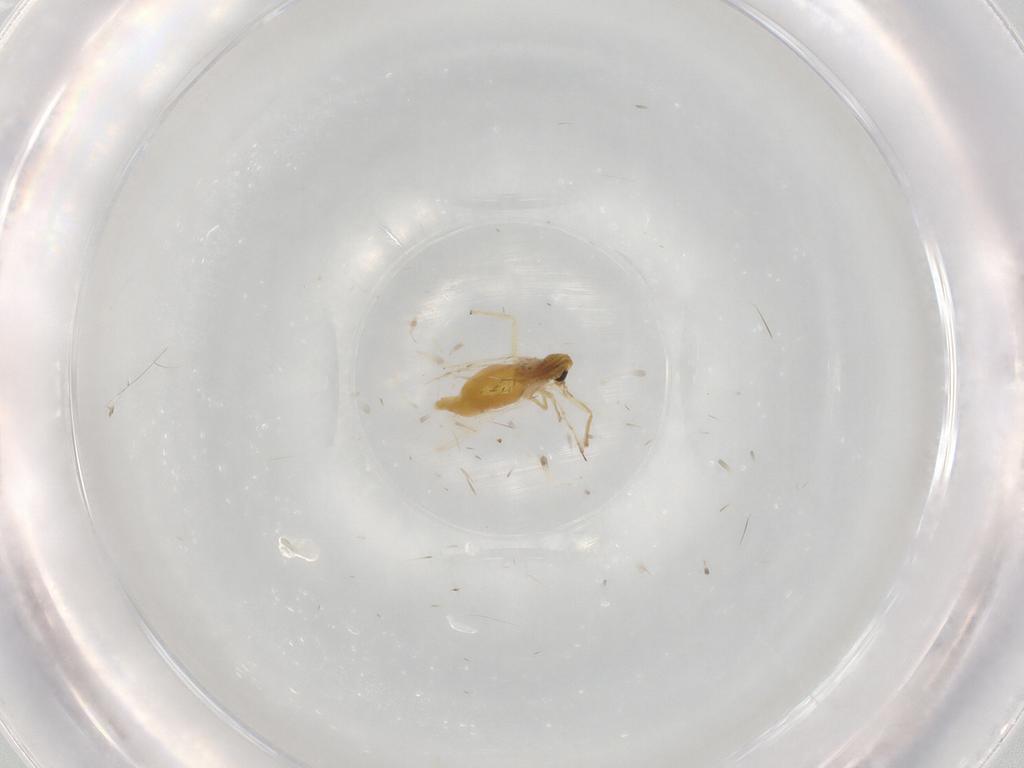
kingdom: Animalia
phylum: Arthropoda
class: Insecta
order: Diptera
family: Chironomidae
